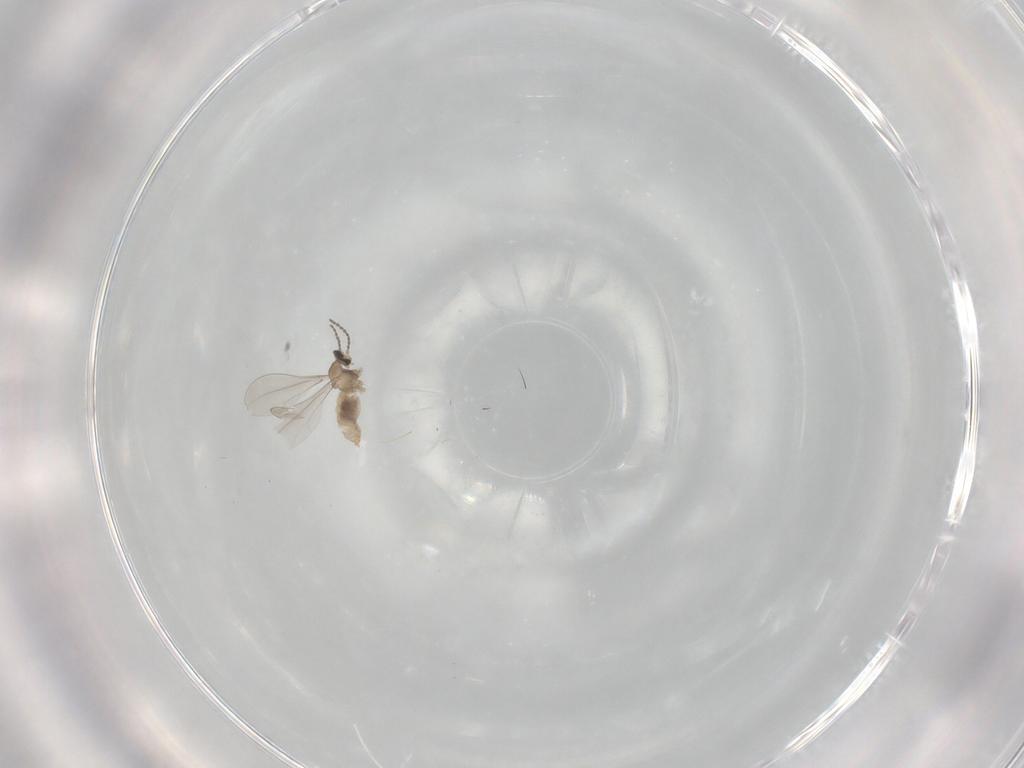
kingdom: Animalia
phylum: Arthropoda
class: Insecta
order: Diptera
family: Cecidomyiidae
